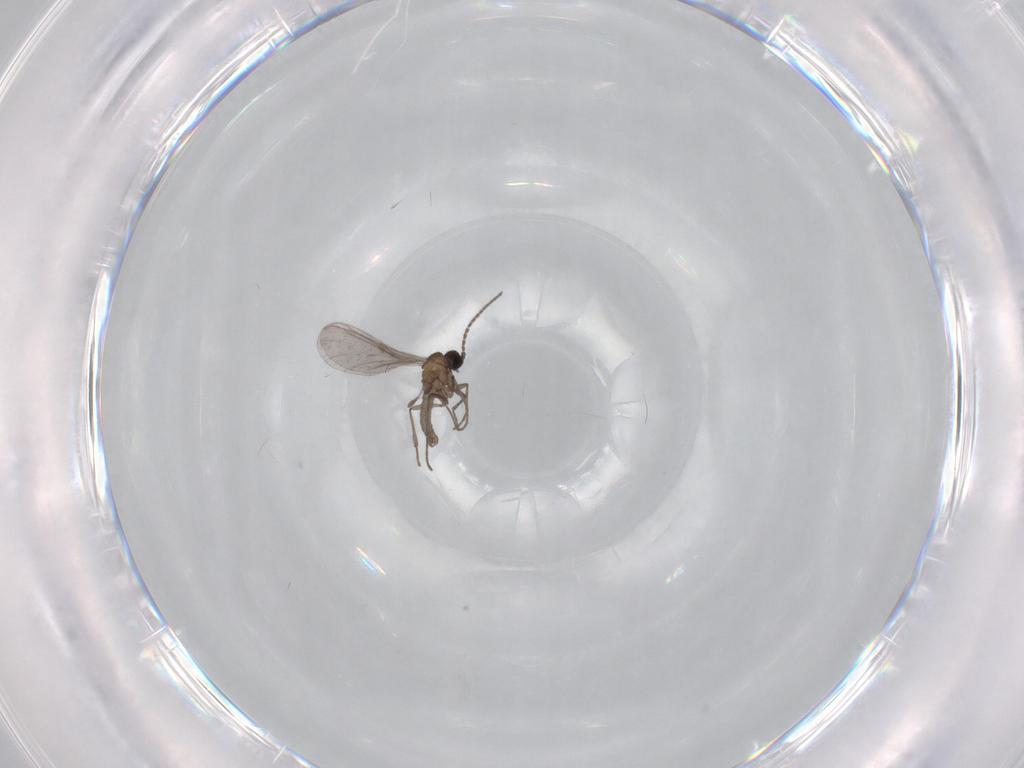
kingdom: Animalia
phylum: Arthropoda
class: Insecta
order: Diptera
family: Sciaridae
